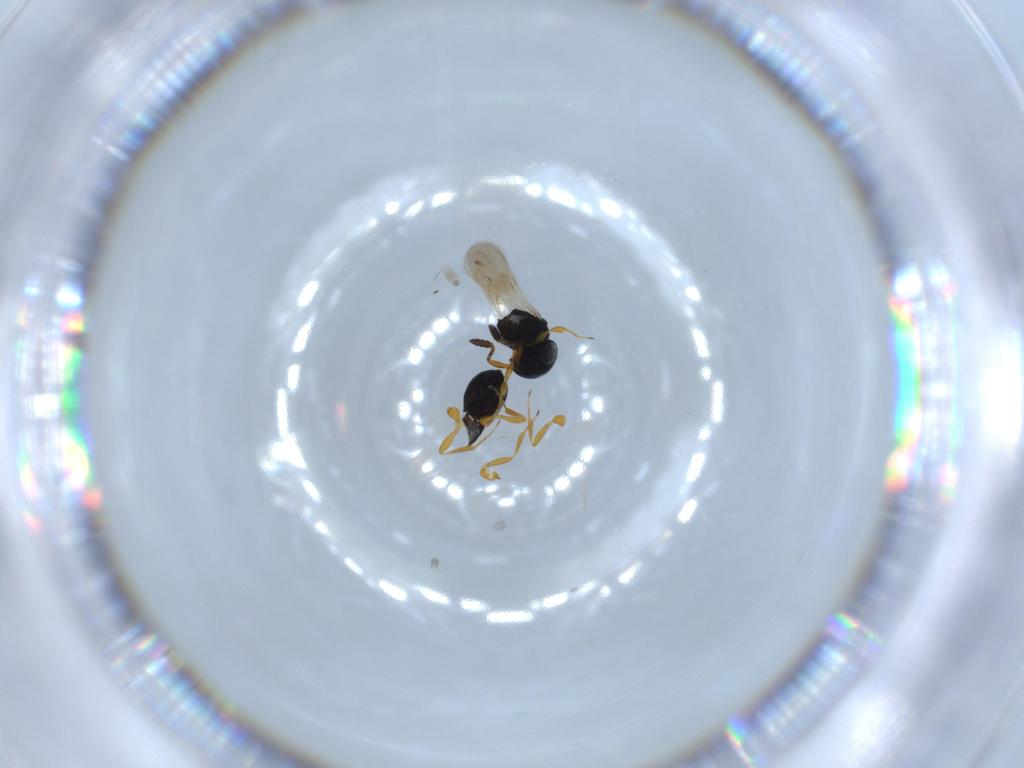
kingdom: Animalia
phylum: Arthropoda
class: Insecta
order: Hymenoptera
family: Scelionidae
